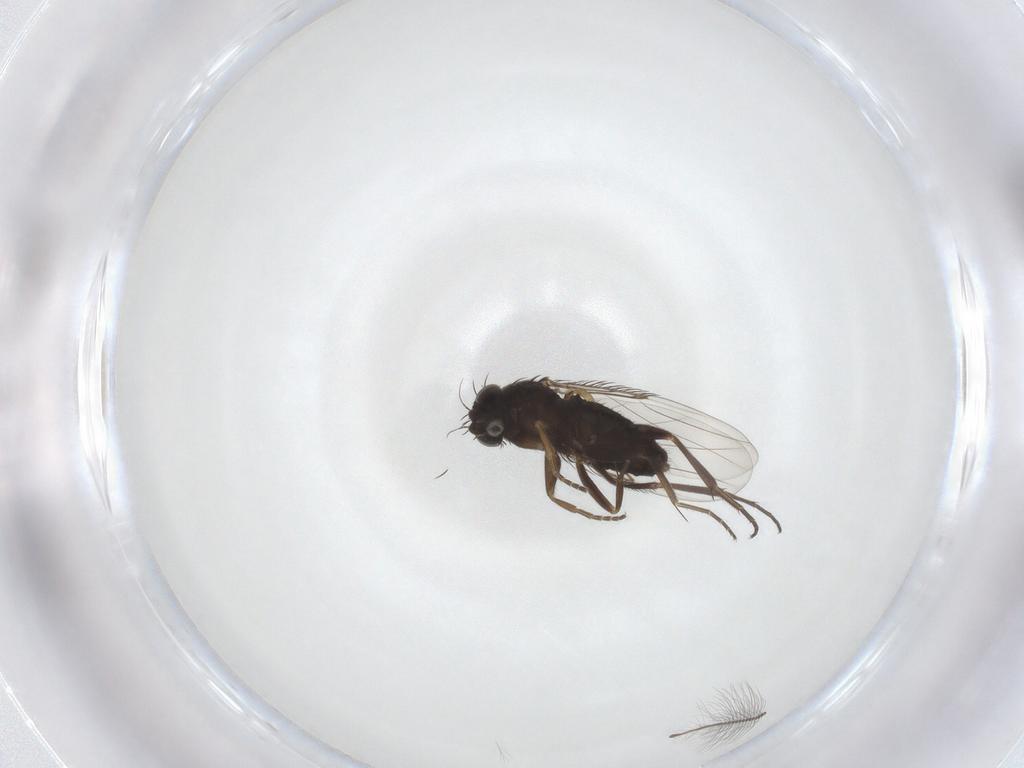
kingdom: Animalia
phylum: Arthropoda
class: Insecta
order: Diptera
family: Phoridae
